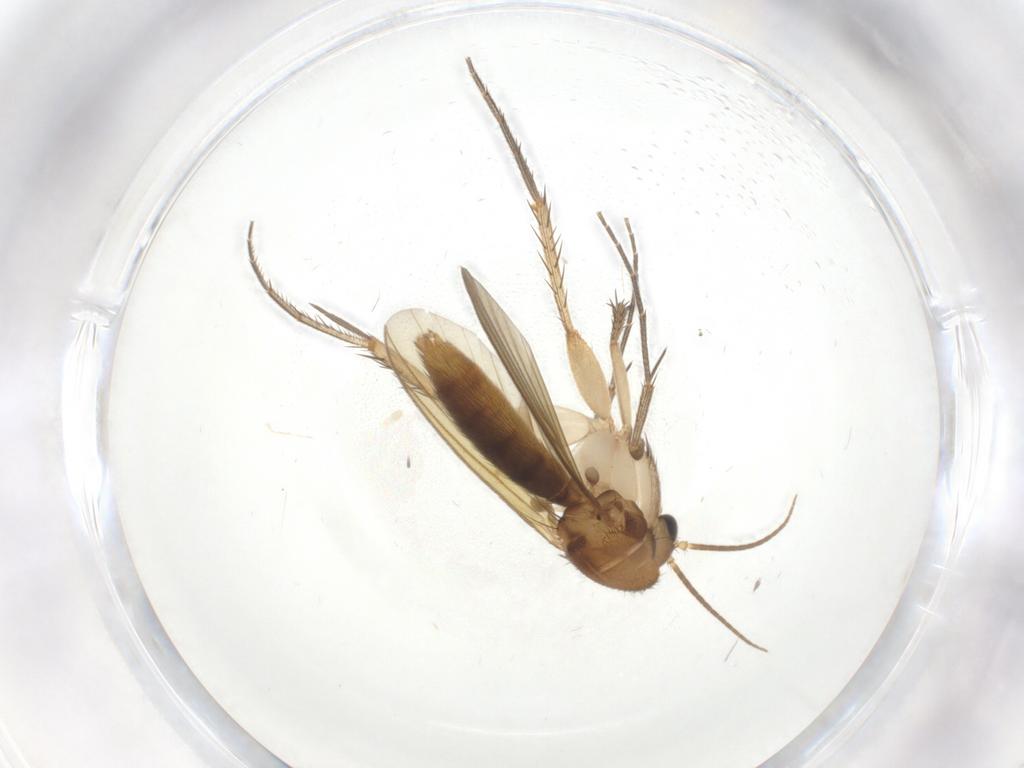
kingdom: Animalia
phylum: Arthropoda
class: Insecta
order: Diptera
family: Mycetophilidae
